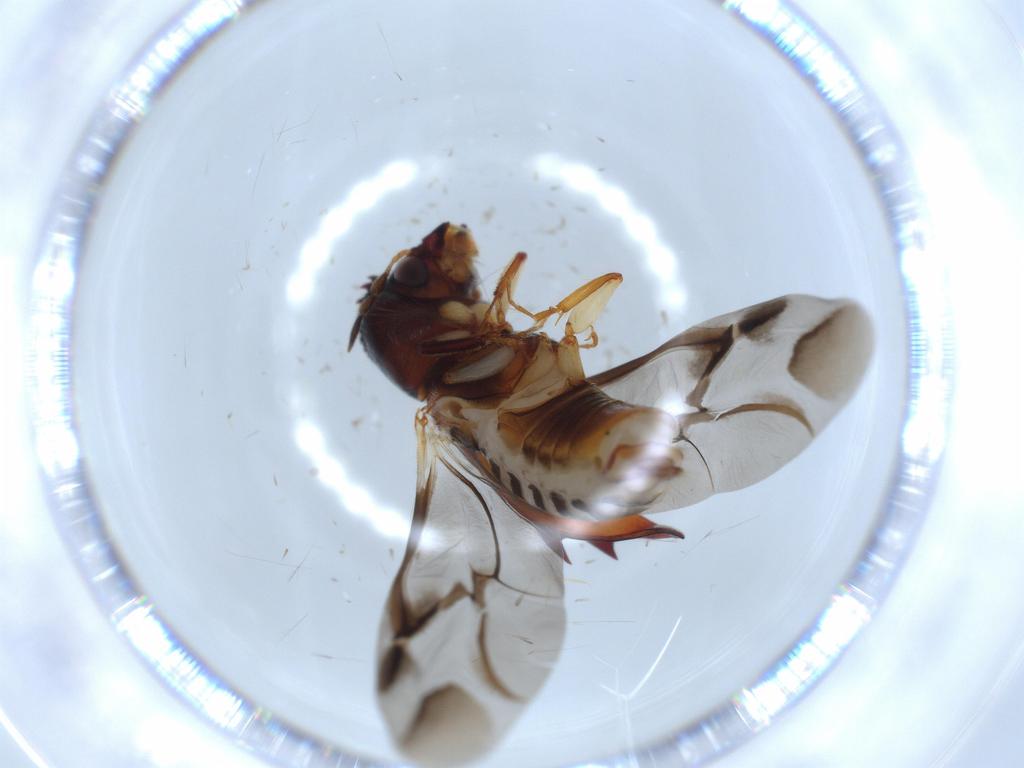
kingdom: Animalia
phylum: Arthropoda
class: Insecta
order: Coleoptera
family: Bostrichidae
